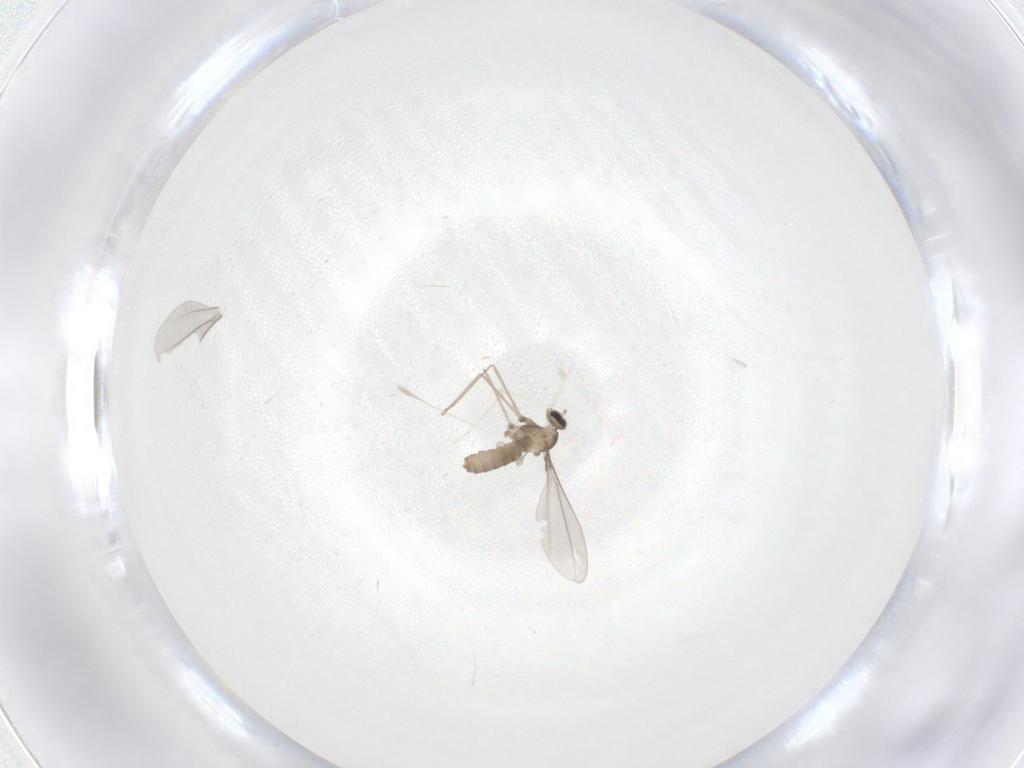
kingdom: Animalia
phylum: Arthropoda
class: Insecta
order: Diptera
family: Cecidomyiidae
